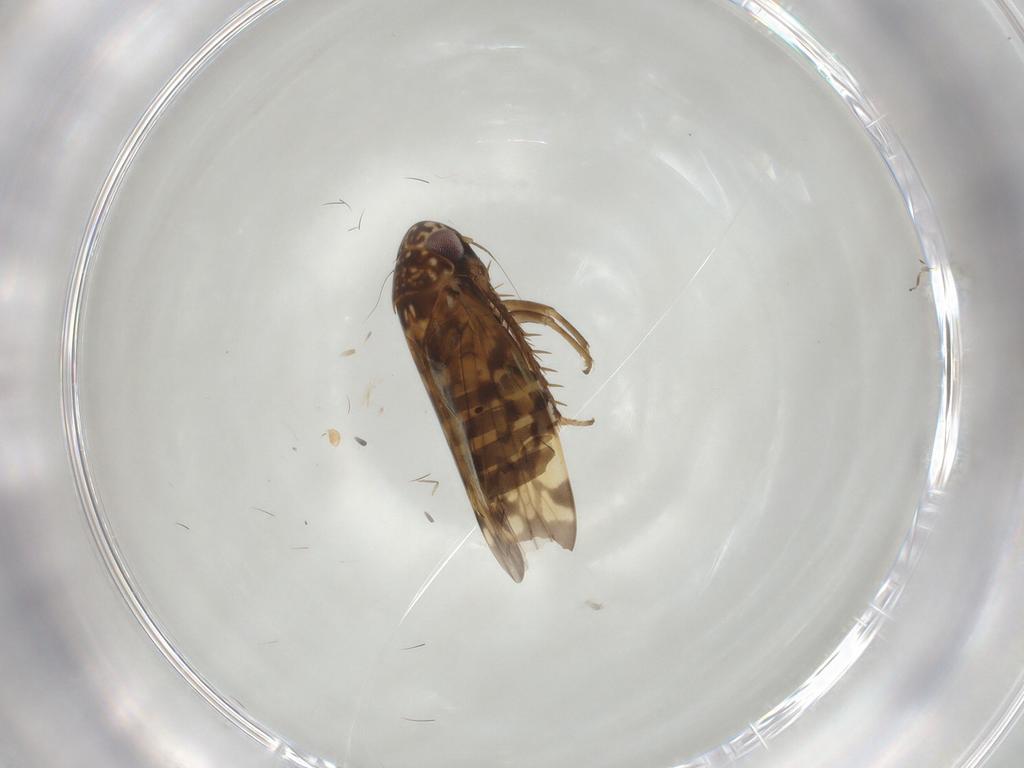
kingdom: Animalia
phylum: Arthropoda
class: Insecta
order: Hemiptera
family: Cicadellidae
